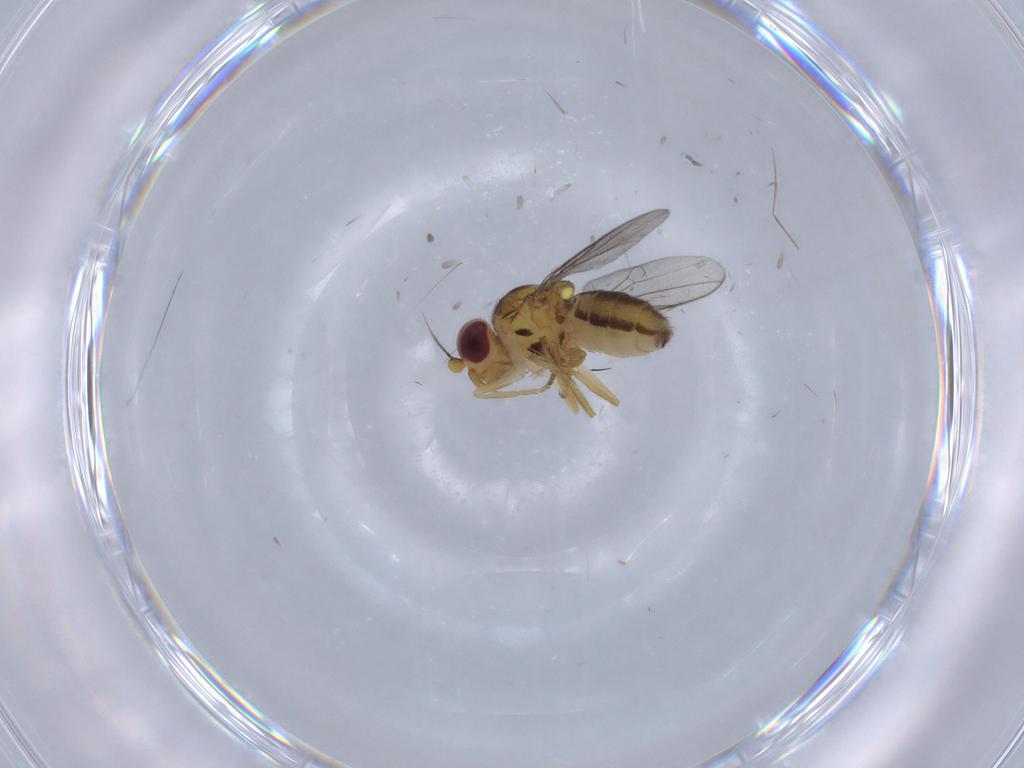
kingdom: Animalia
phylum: Arthropoda
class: Insecta
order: Diptera
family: Chloropidae
